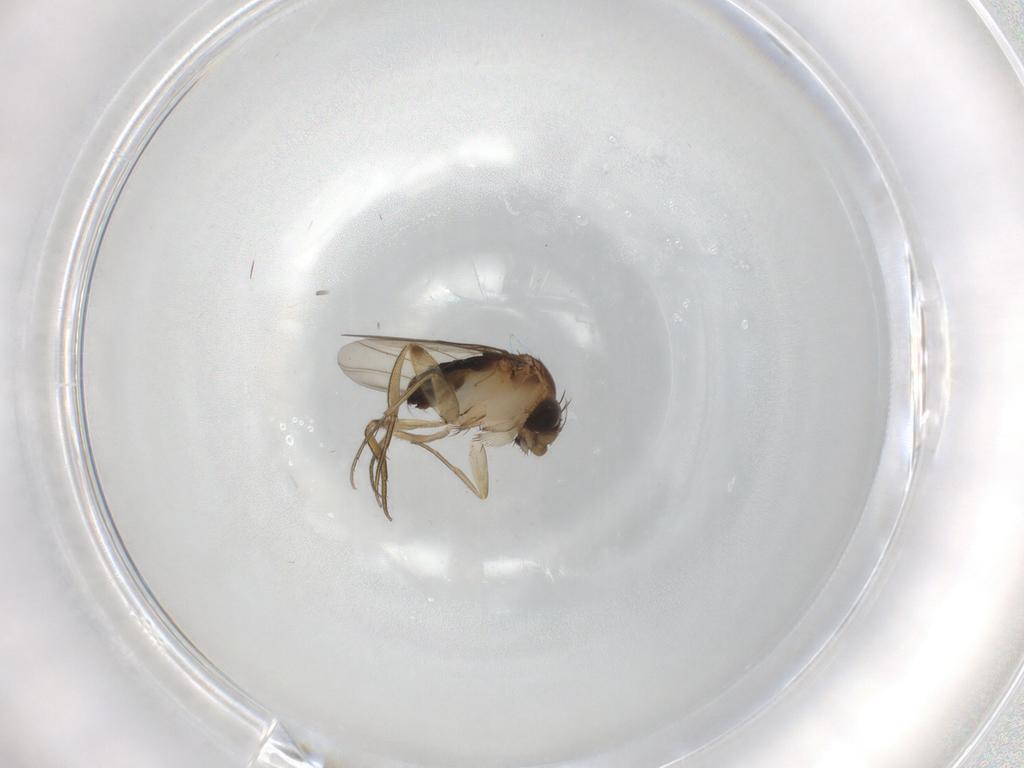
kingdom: Animalia
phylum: Arthropoda
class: Insecta
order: Diptera
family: Phoridae
